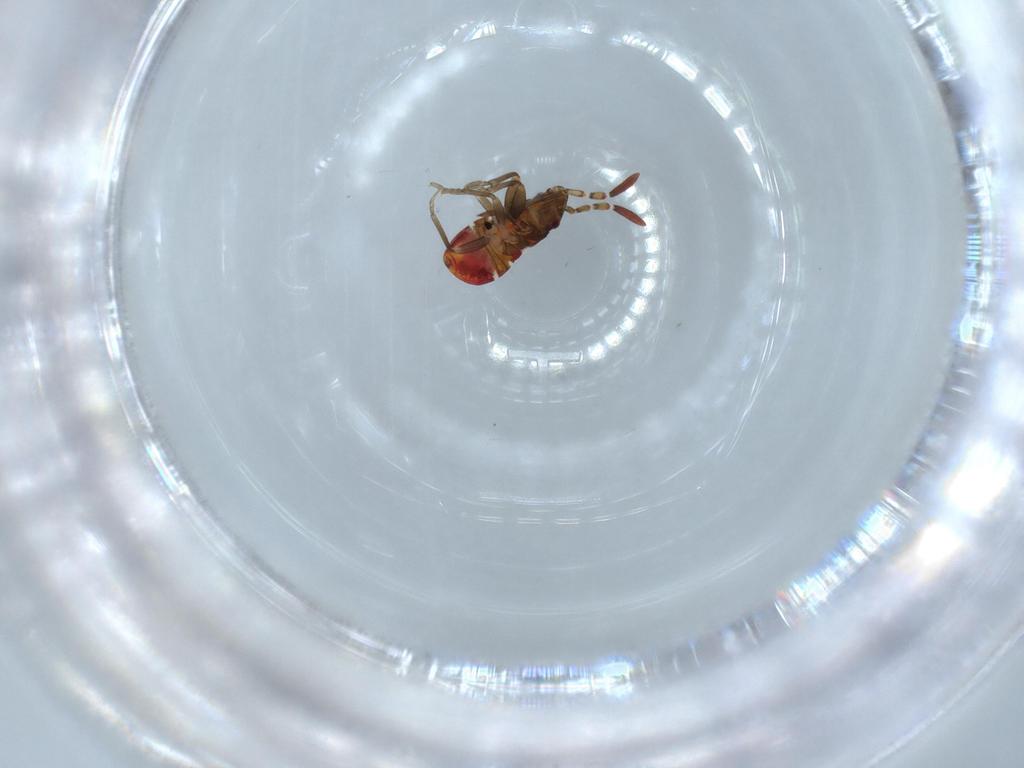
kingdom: Animalia
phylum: Arthropoda
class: Insecta
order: Hemiptera
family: Rhyparochromidae
